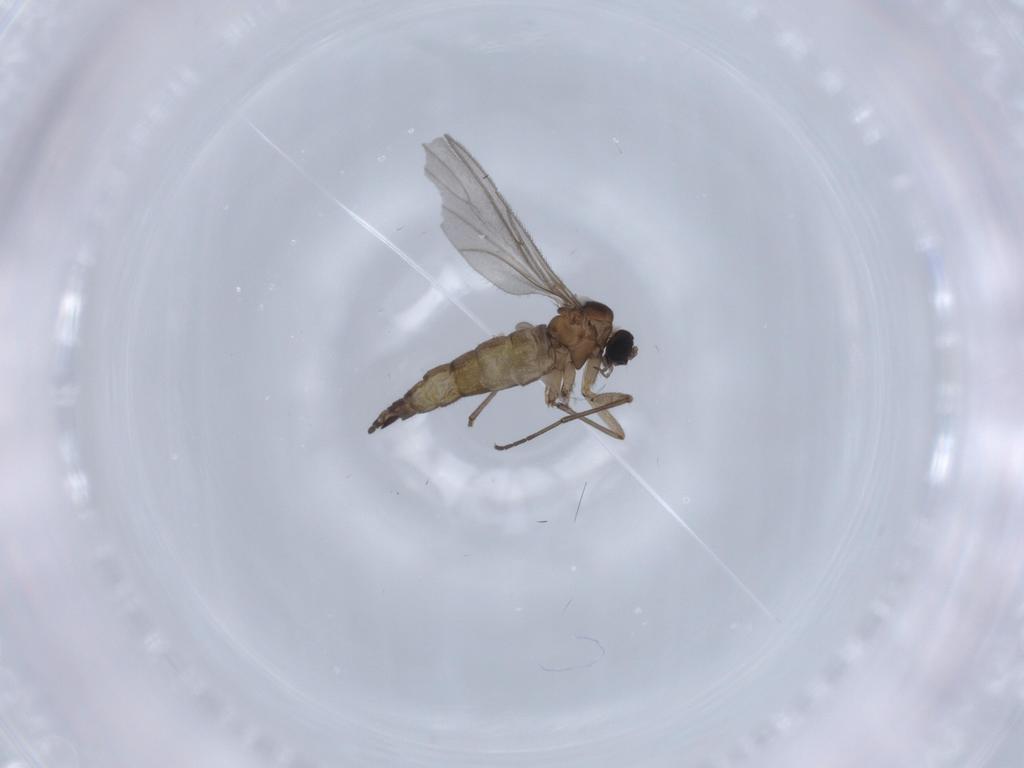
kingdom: Animalia
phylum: Arthropoda
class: Insecta
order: Diptera
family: Sciaridae
